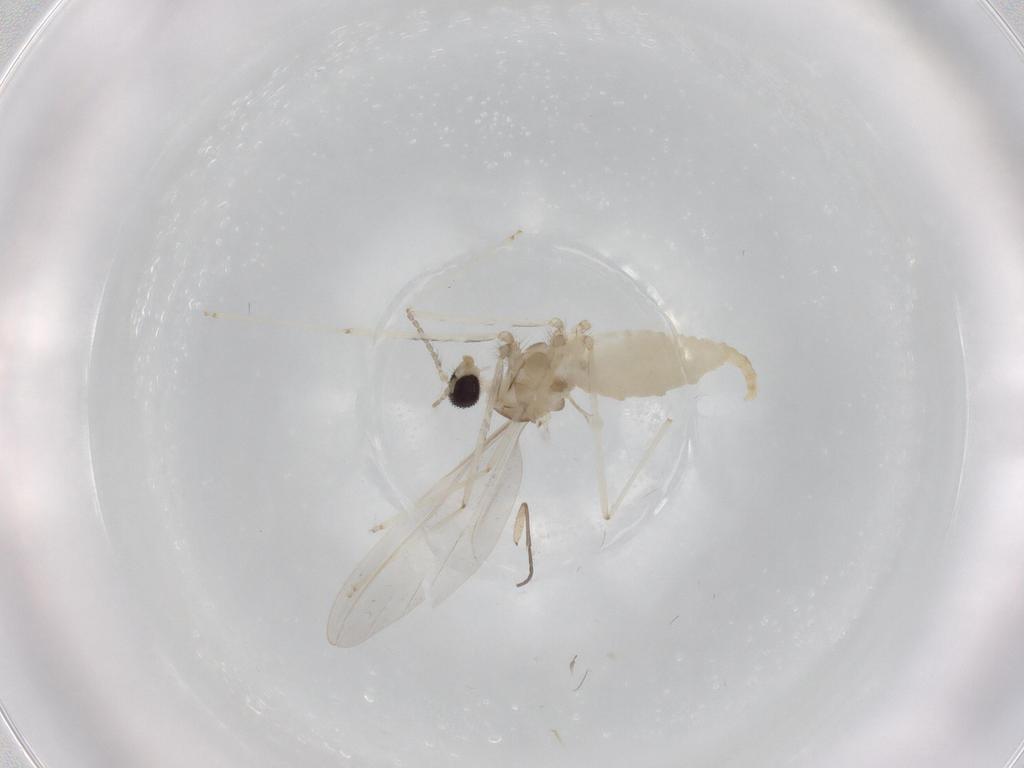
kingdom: Animalia
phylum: Arthropoda
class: Insecta
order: Diptera
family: Cecidomyiidae
